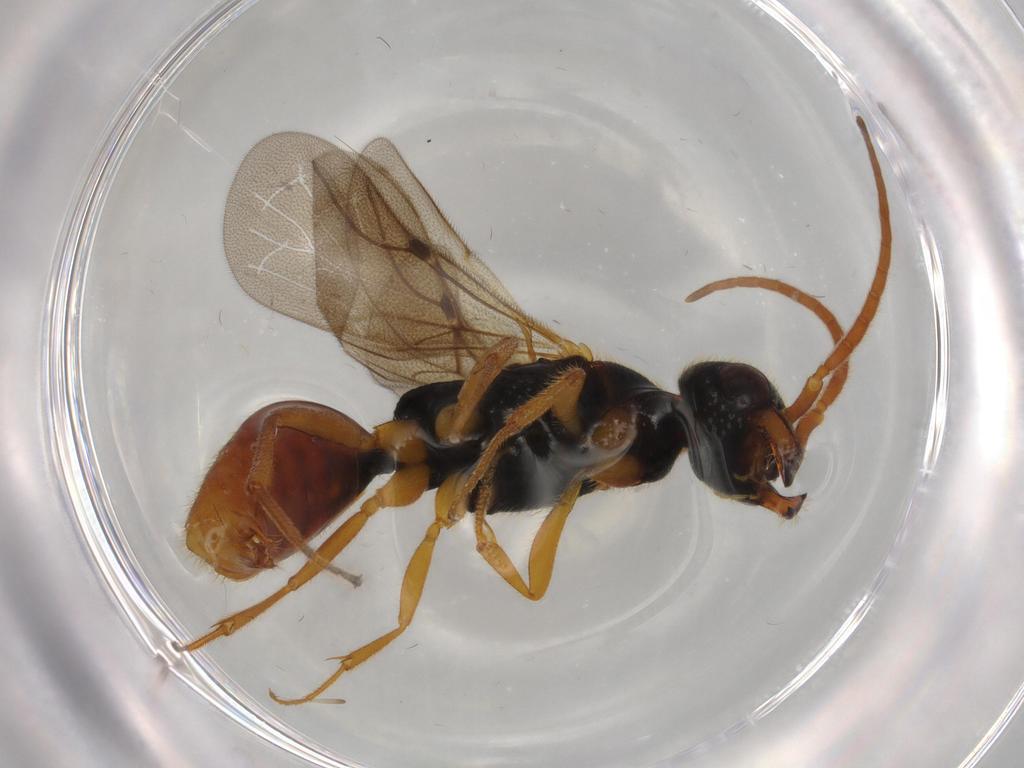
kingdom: Animalia
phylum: Arthropoda
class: Insecta
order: Hymenoptera
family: Bethylidae
